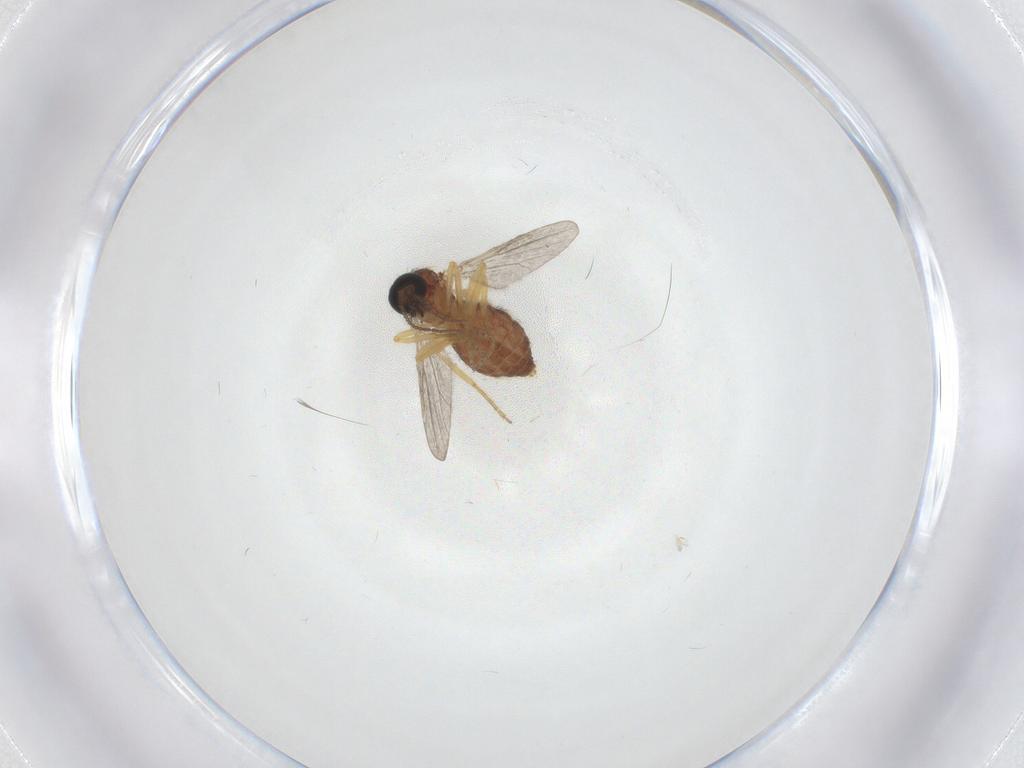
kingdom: Animalia
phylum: Arthropoda
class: Insecta
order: Diptera
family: Ceratopogonidae
